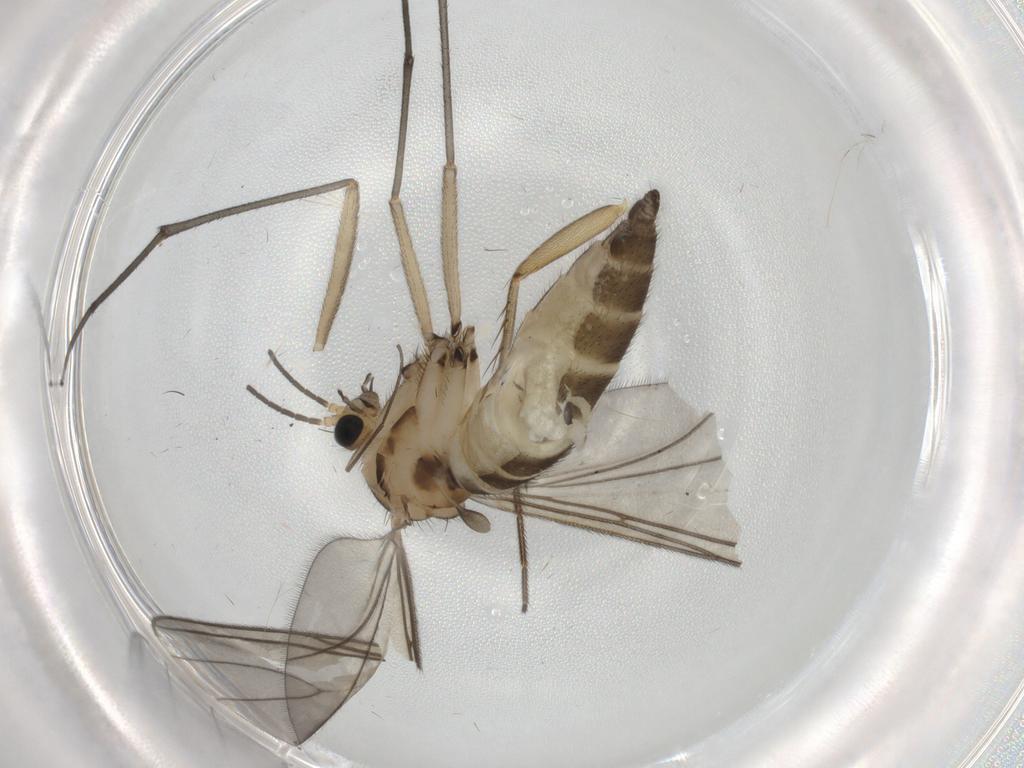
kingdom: Animalia
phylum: Arthropoda
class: Insecta
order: Diptera
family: Sciaridae
